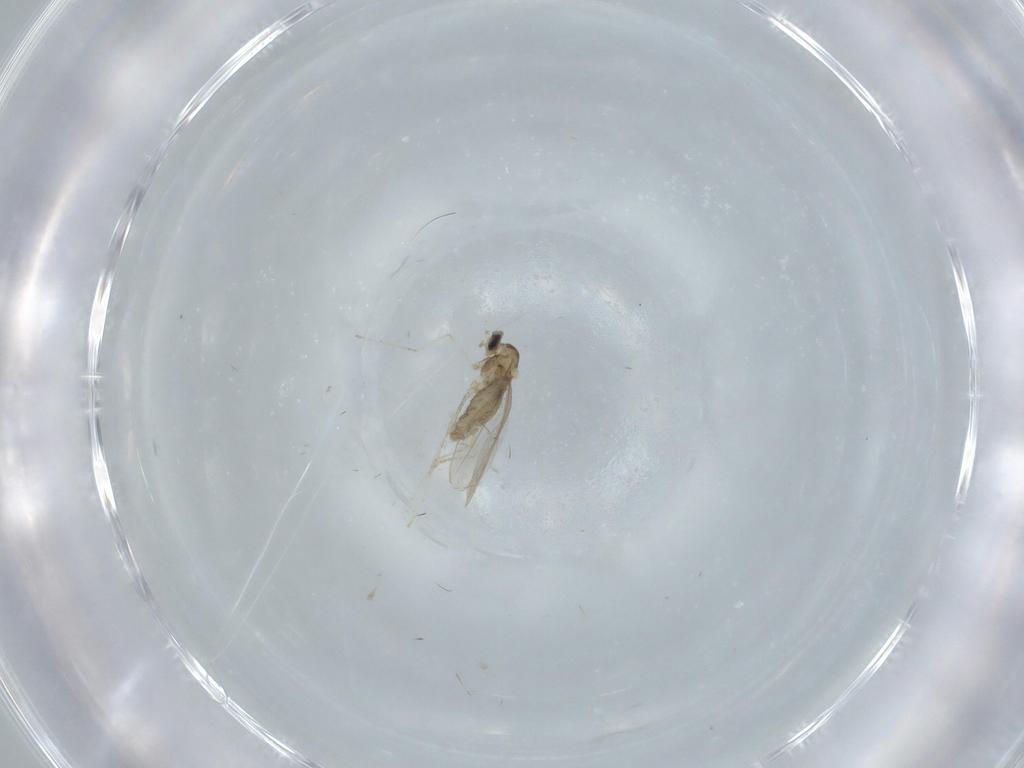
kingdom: Animalia
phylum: Arthropoda
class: Insecta
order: Diptera
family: Cecidomyiidae
